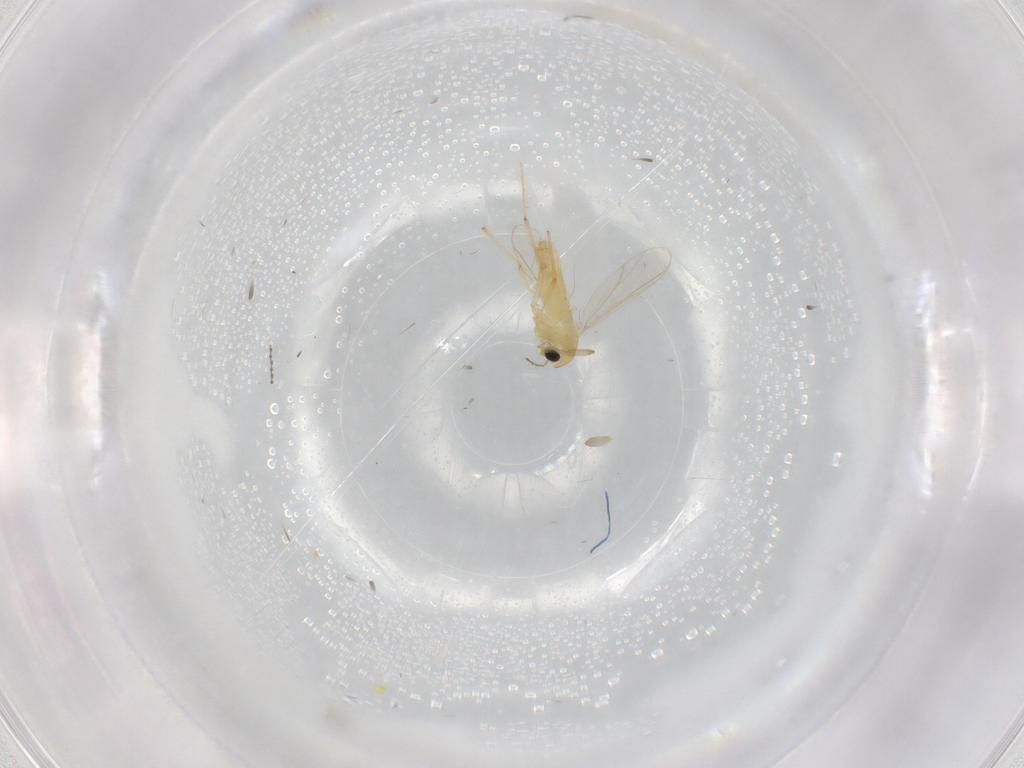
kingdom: Animalia
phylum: Arthropoda
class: Insecta
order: Diptera
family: Chironomidae
